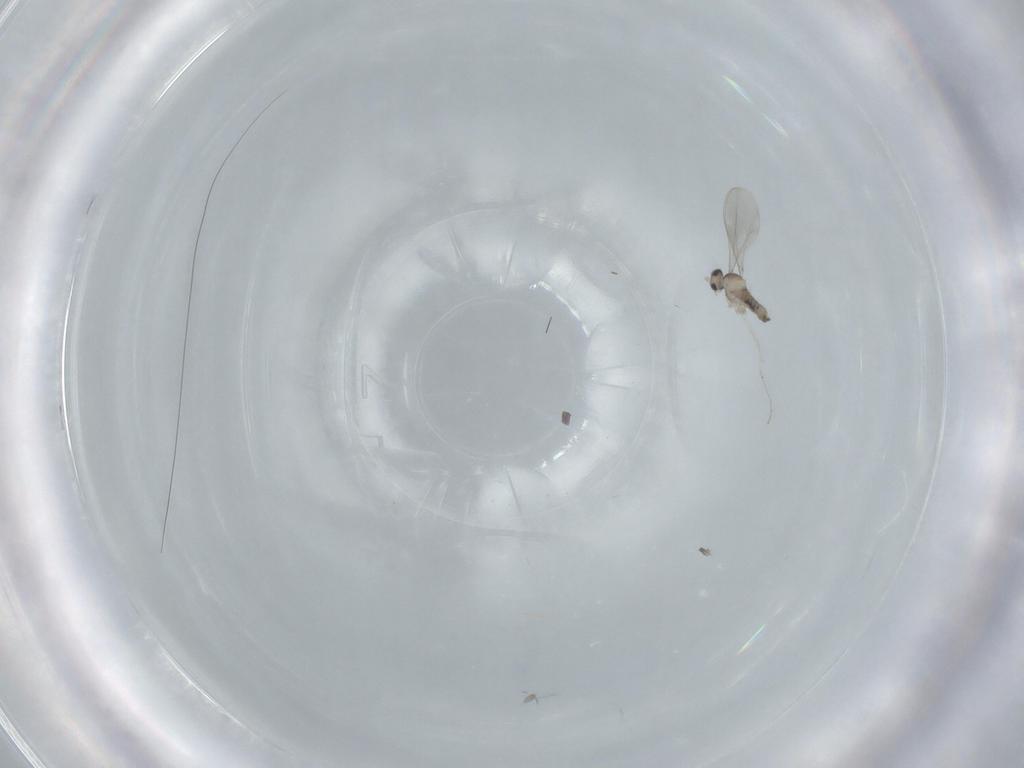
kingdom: Animalia
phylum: Arthropoda
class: Insecta
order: Diptera
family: Cecidomyiidae
